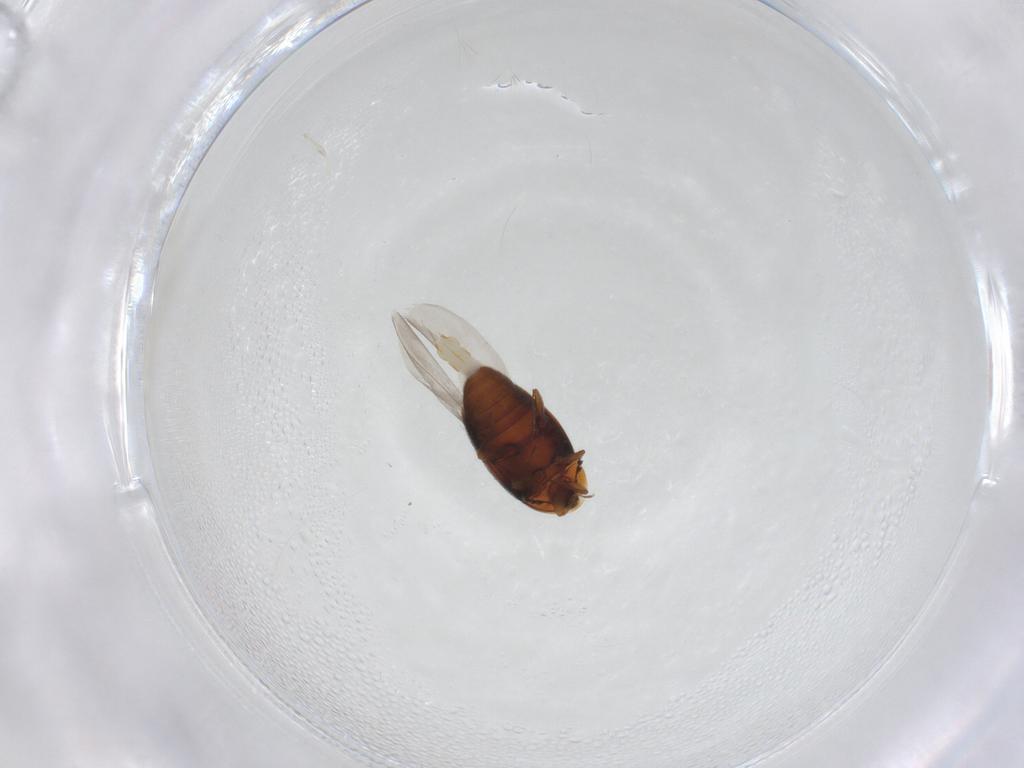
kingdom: Animalia
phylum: Arthropoda
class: Insecta
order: Coleoptera
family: Corylophidae
